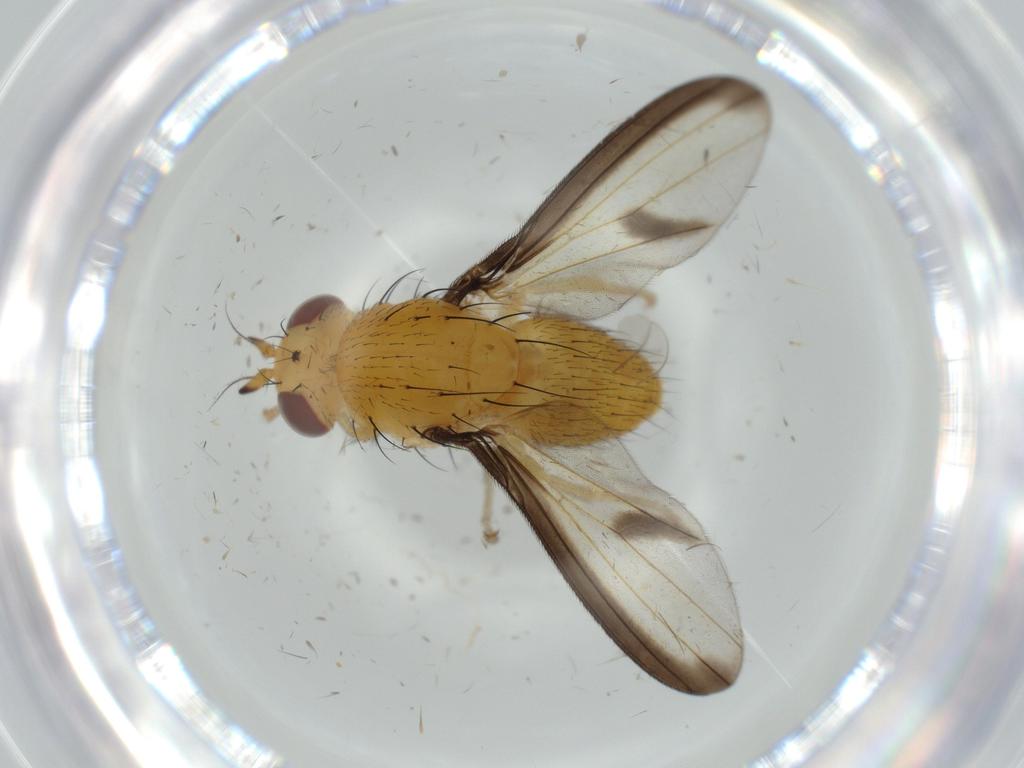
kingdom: Animalia
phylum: Arthropoda
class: Insecta
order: Diptera
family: Lauxaniidae
